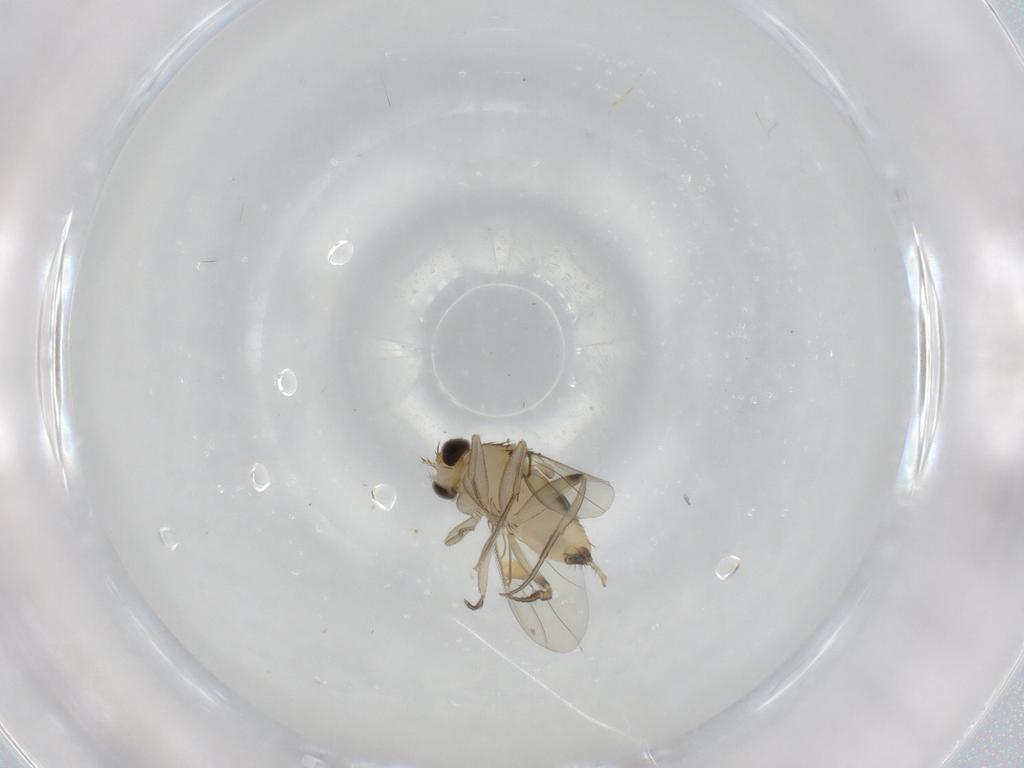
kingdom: Animalia
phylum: Arthropoda
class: Insecta
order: Diptera
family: Phoridae
